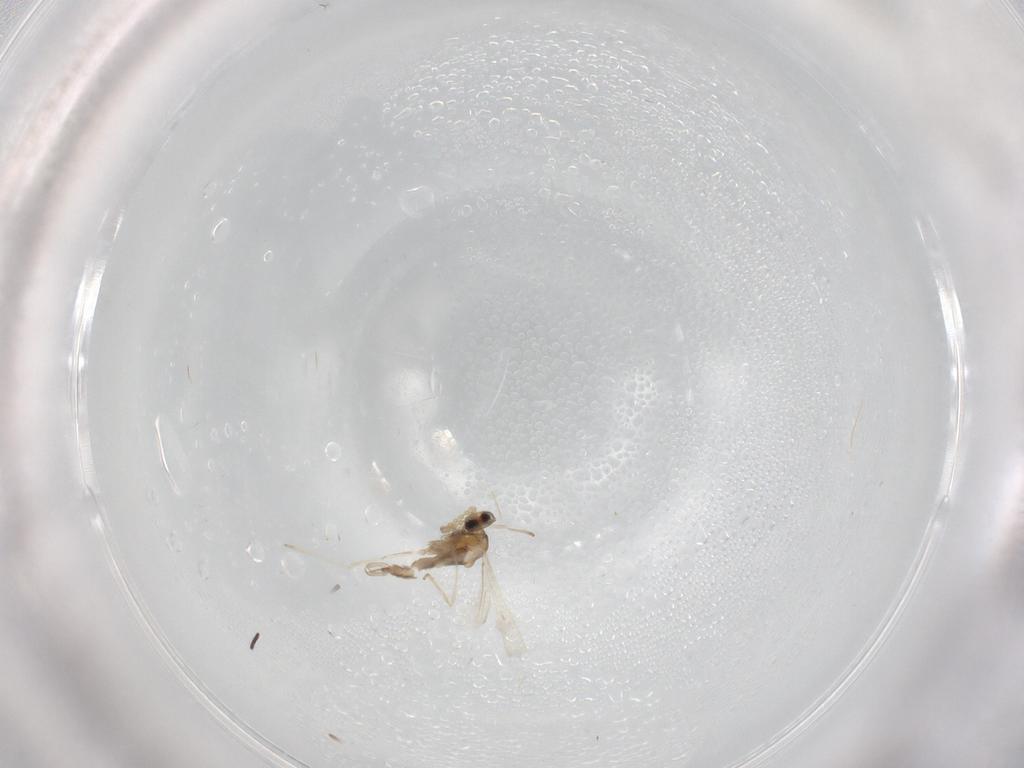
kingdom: Animalia
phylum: Arthropoda
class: Insecta
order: Diptera
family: Cecidomyiidae
